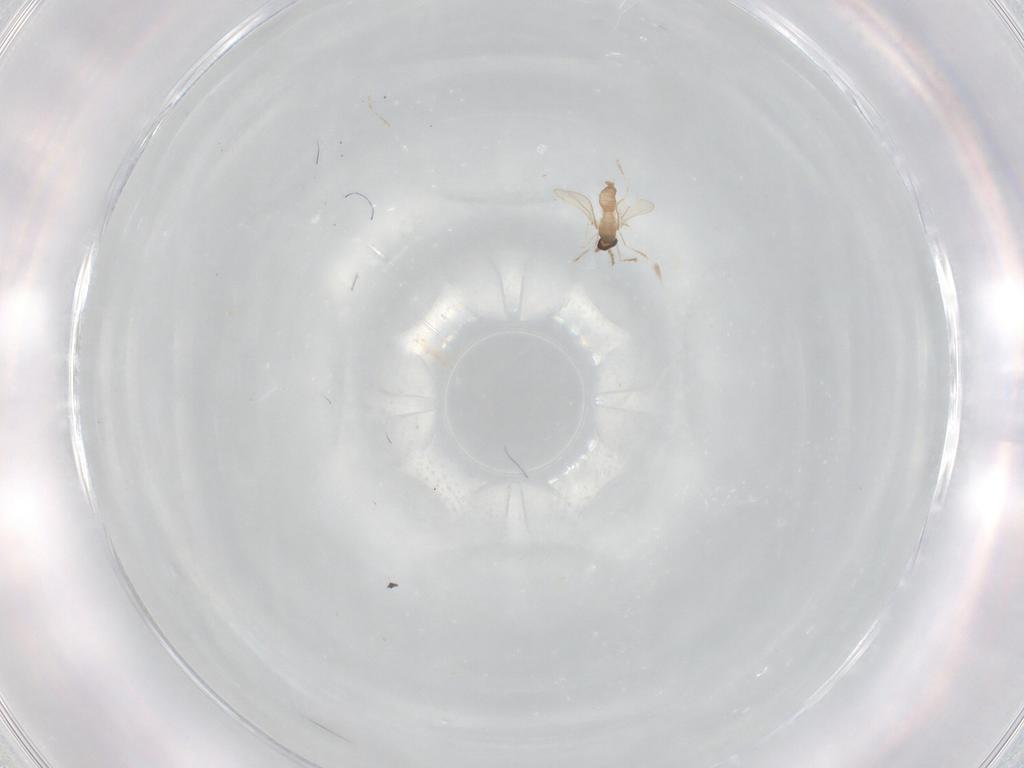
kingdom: Animalia
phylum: Arthropoda
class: Insecta
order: Diptera
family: Cecidomyiidae
